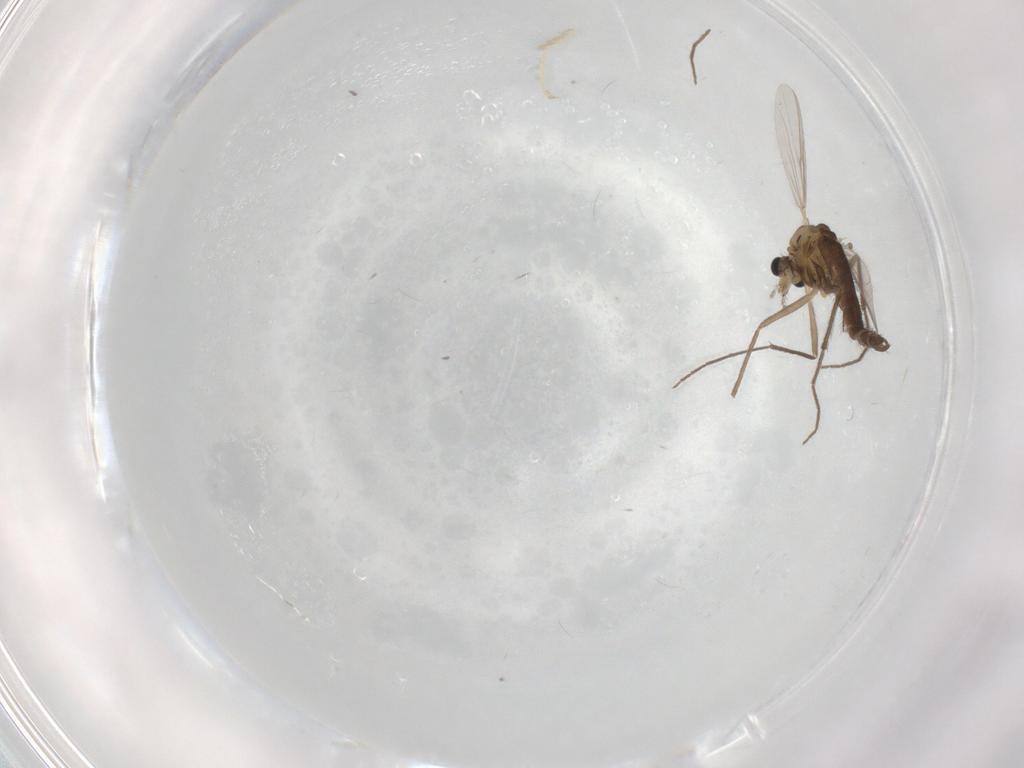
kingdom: Animalia
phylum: Arthropoda
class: Insecta
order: Diptera
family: Chironomidae
